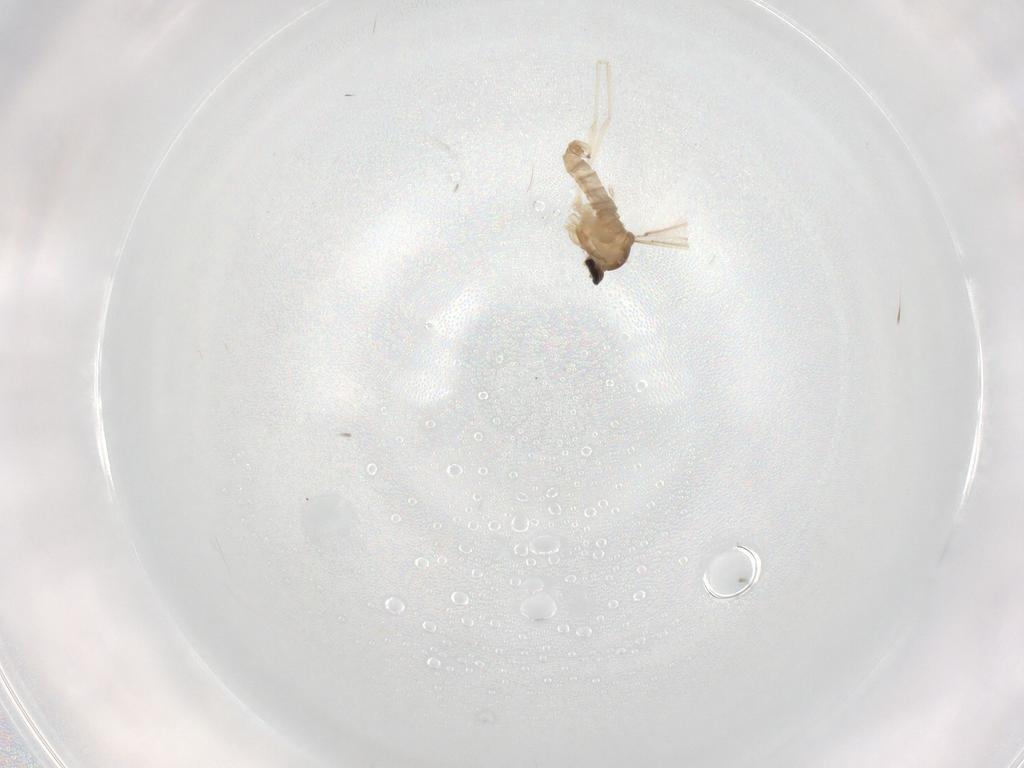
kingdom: Animalia
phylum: Arthropoda
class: Insecta
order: Diptera
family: Cecidomyiidae
